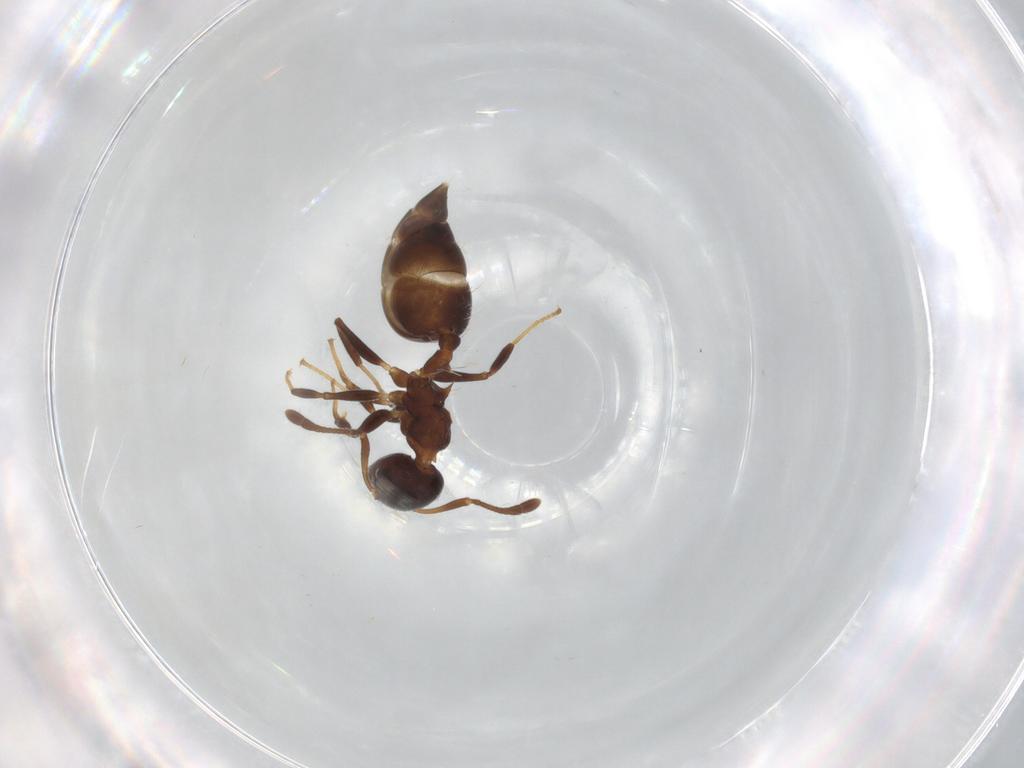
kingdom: Animalia
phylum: Arthropoda
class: Insecta
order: Hymenoptera
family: Formicidae
